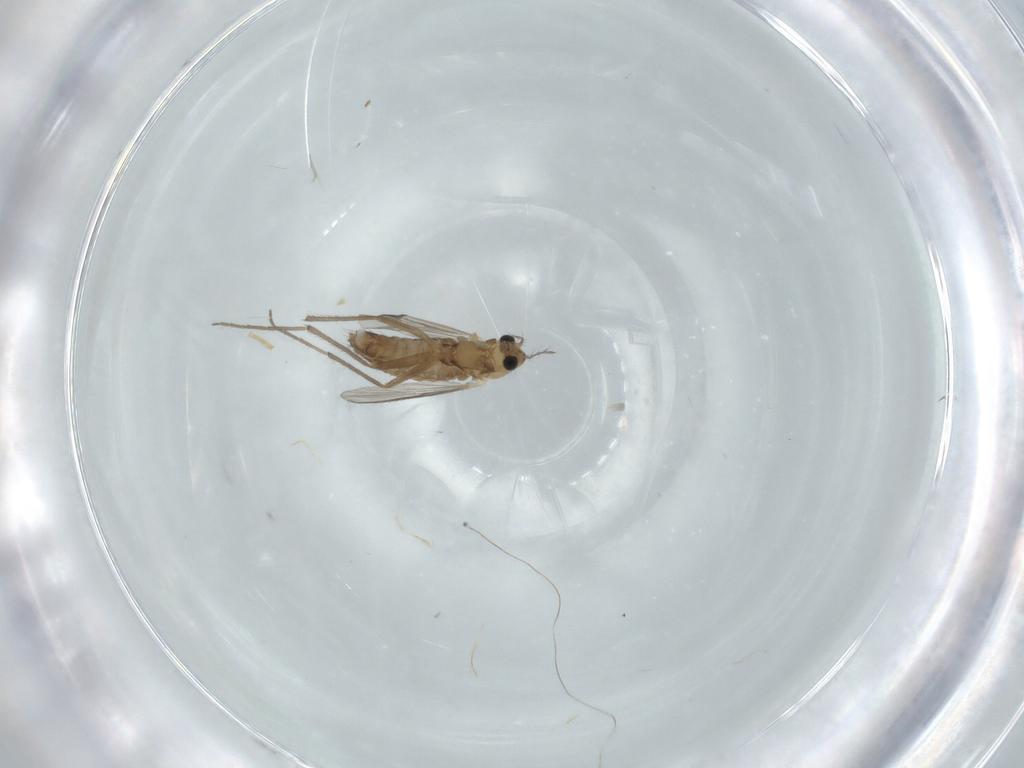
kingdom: Animalia
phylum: Arthropoda
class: Insecta
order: Diptera
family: Chironomidae
